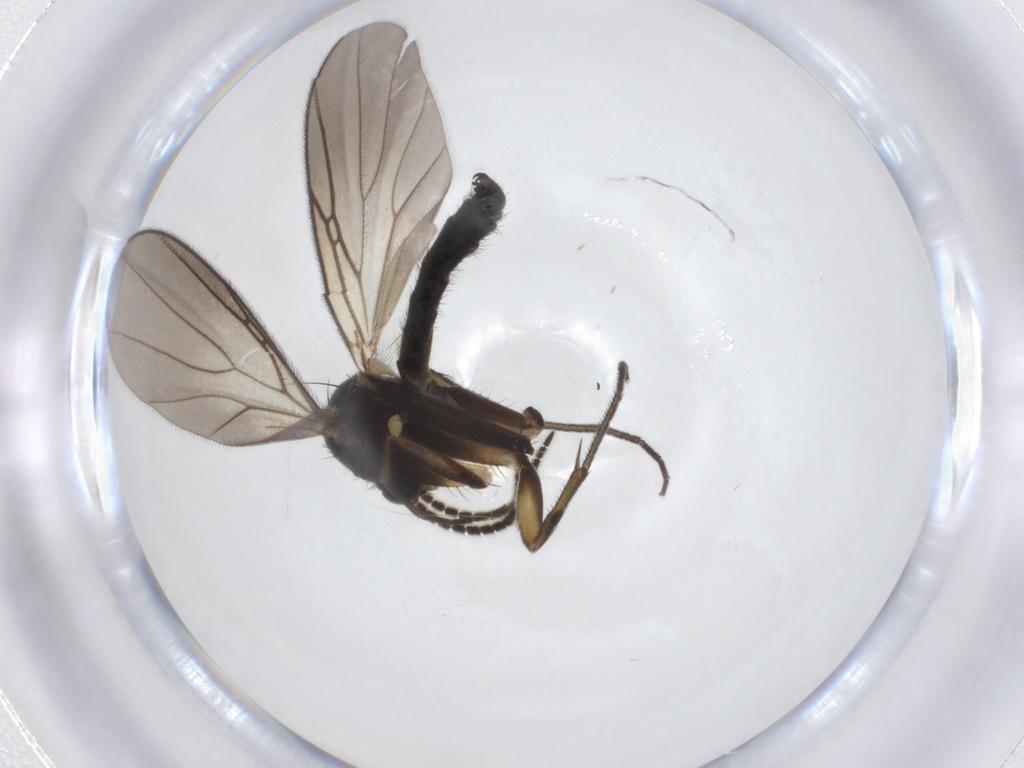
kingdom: Animalia
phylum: Arthropoda
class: Insecta
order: Diptera
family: Mycetophilidae
